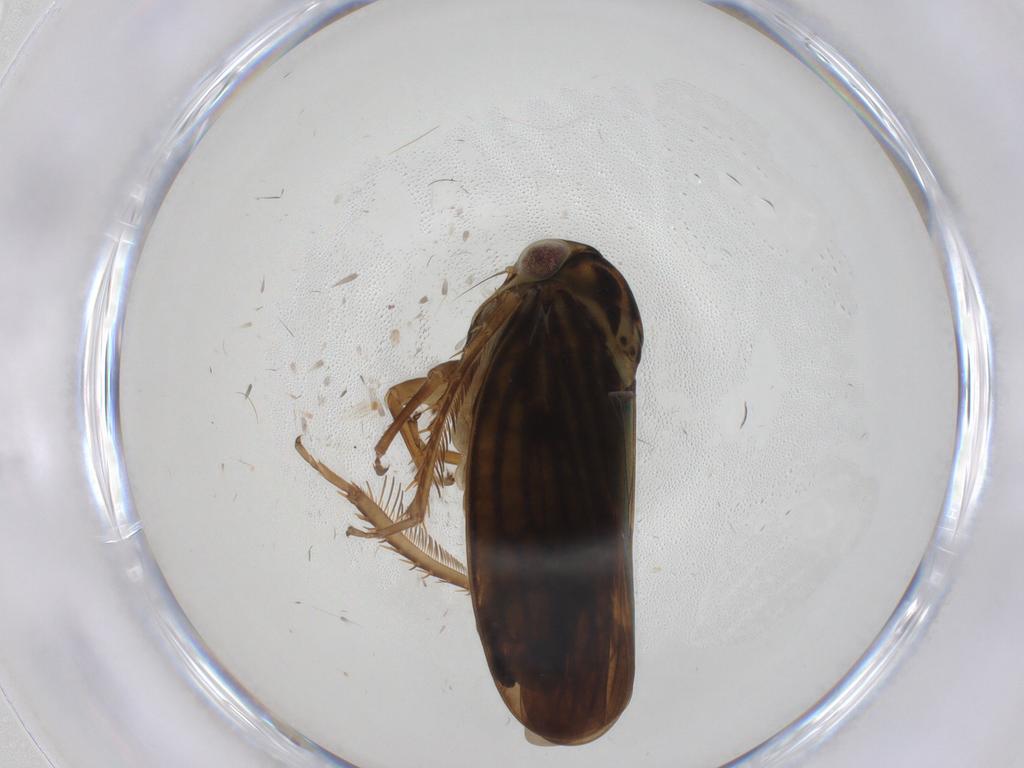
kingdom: Animalia
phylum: Arthropoda
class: Insecta
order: Hemiptera
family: Cicadellidae
